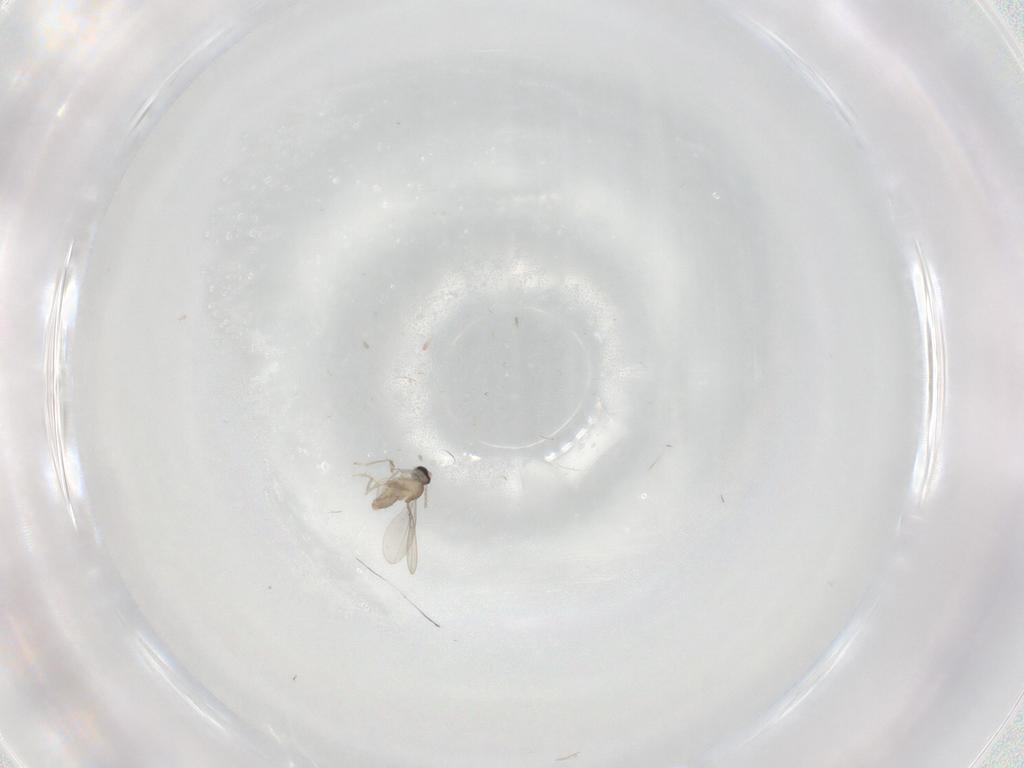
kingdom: Animalia
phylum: Arthropoda
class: Insecta
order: Diptera
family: Cecidomyiidae
